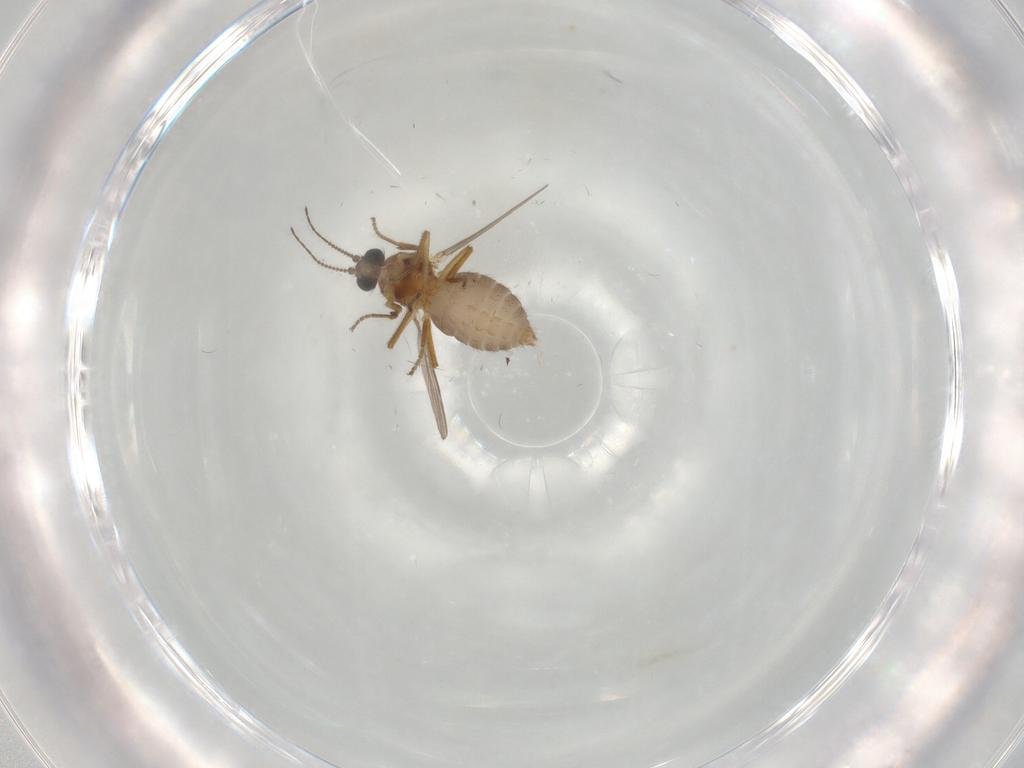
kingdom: Animalia
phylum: Arthropoda
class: Insecta
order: Diptera
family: Ceratopogonidae
